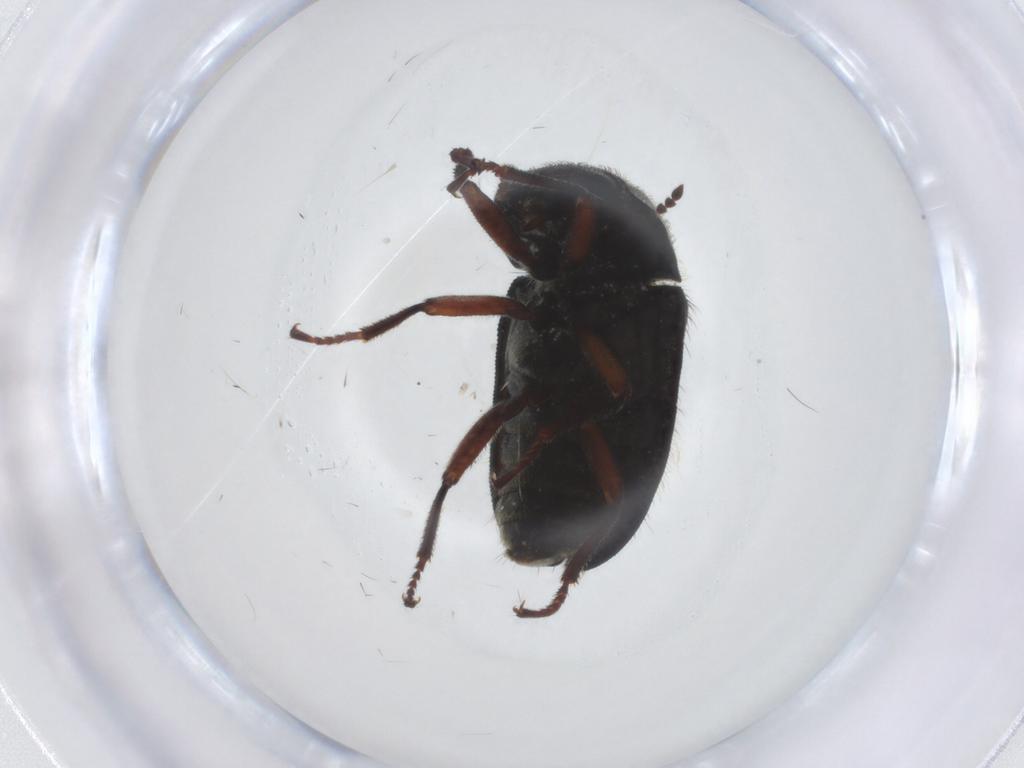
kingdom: Animalia
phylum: Arthropoda
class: Insecta
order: Coleoptera
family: Melyridae
